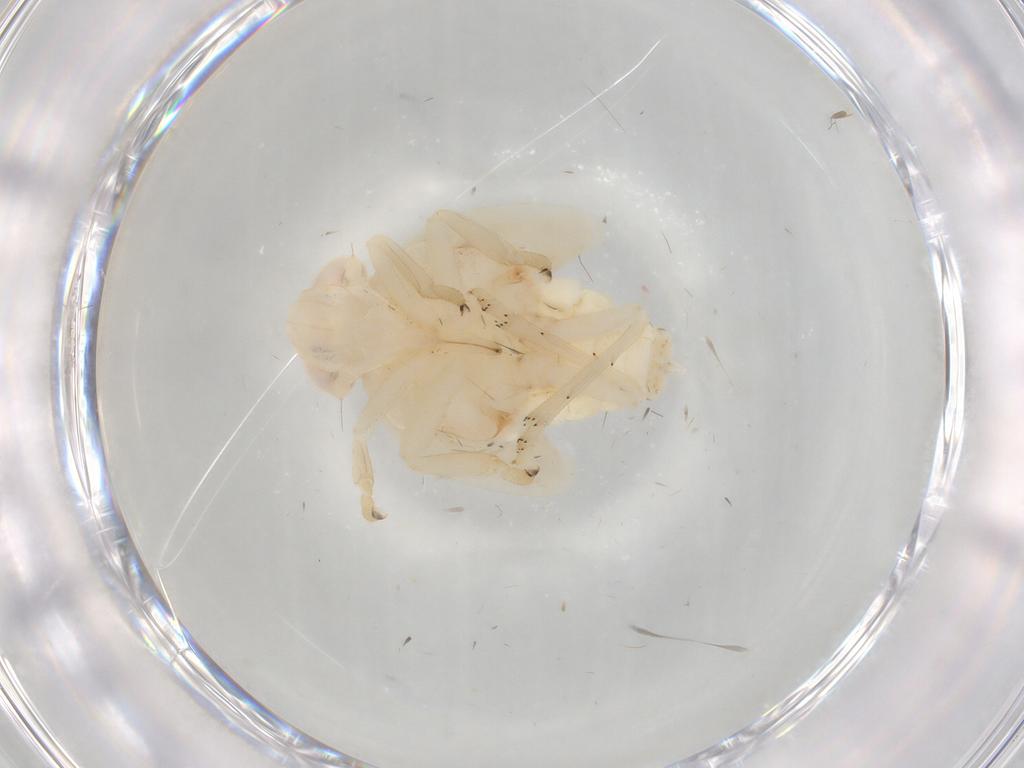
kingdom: Animalia
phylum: Arthropoda
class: Insecta
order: Hemiptera
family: Nogodinidae
